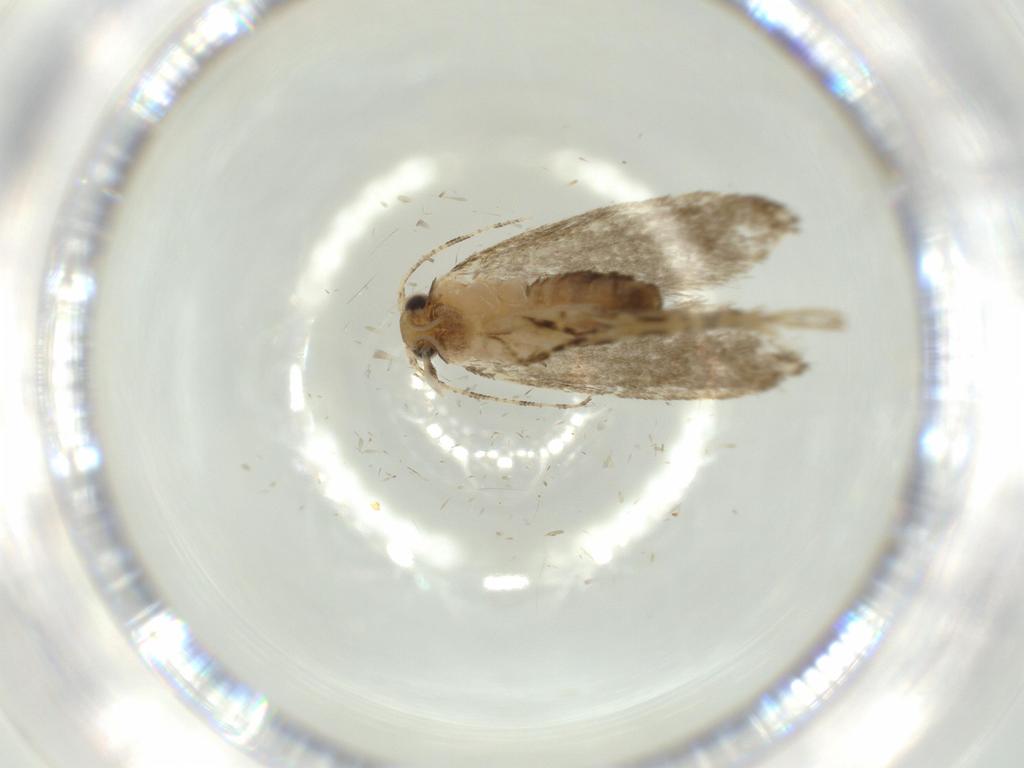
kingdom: Animalia
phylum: Arthropoda
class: Insecta
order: Lepidoptera
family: Tineidae
